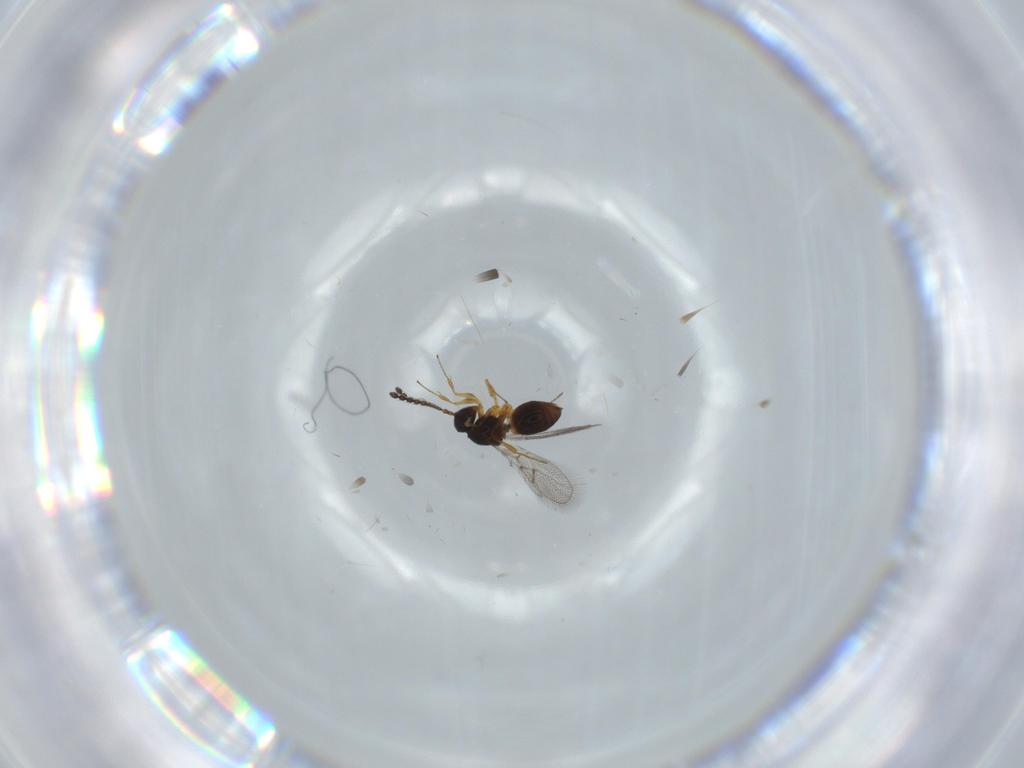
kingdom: Animalia
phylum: Arthropoda
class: Insecta
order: Hymenoptera
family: Figitidae
